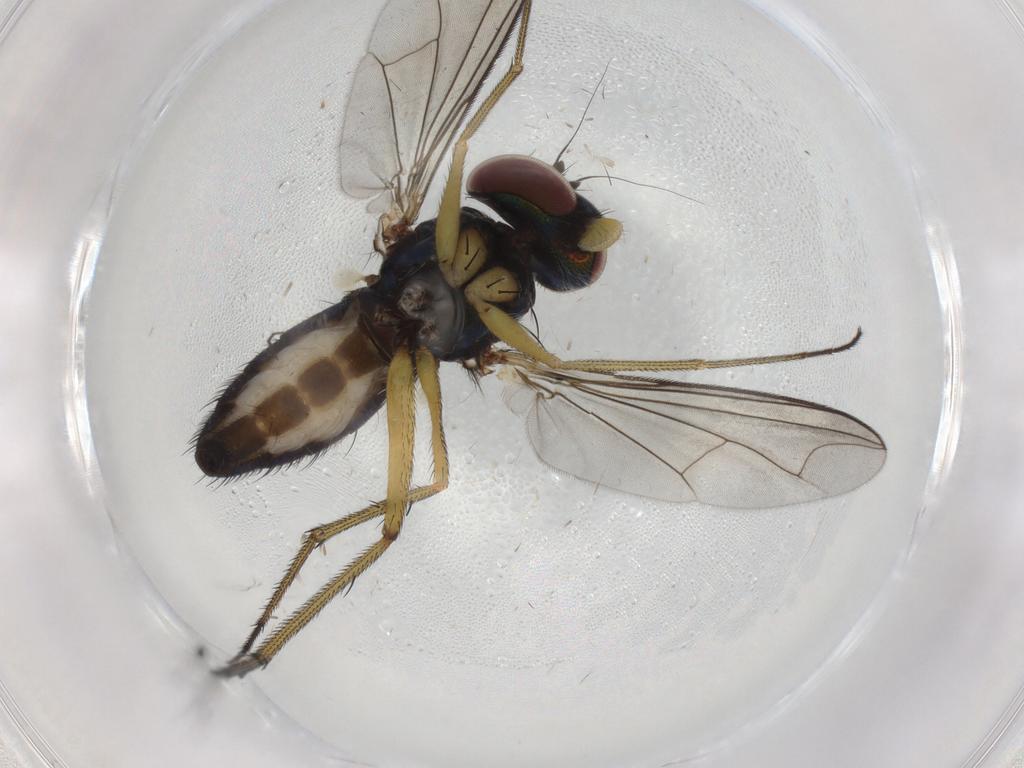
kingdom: Animalia
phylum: Arthropoda
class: Insecta
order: Diptera
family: Dolichopodidae
